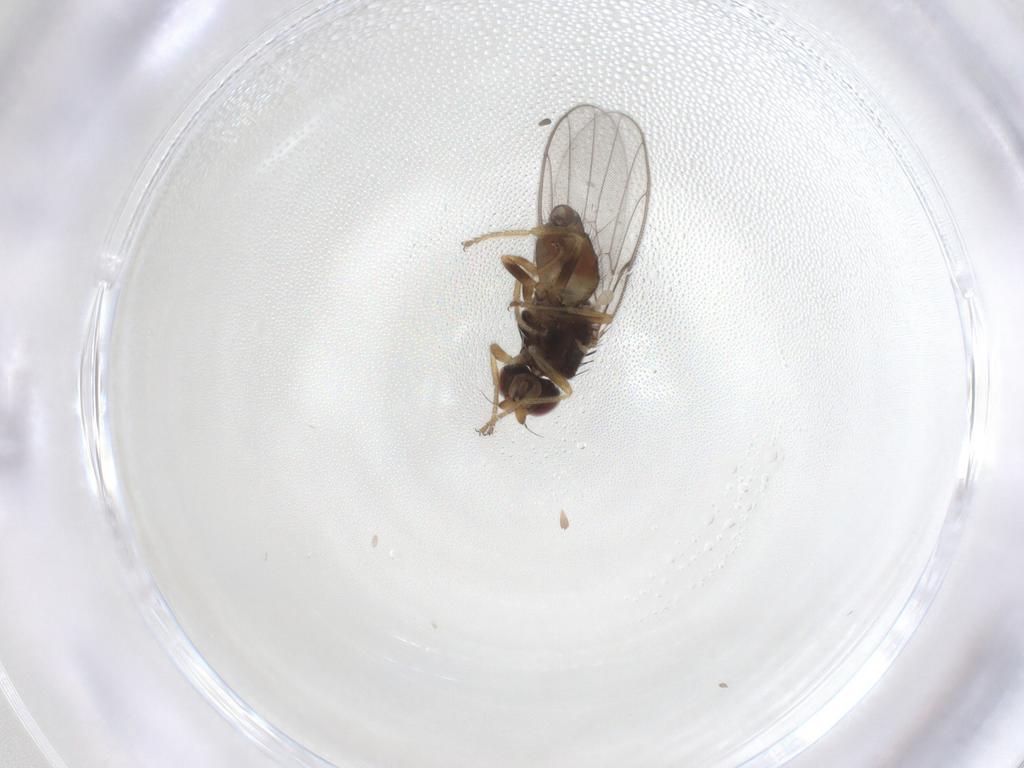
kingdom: Animalia
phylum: Arthropoda
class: Insecta
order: Diptera
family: Chloropidae
